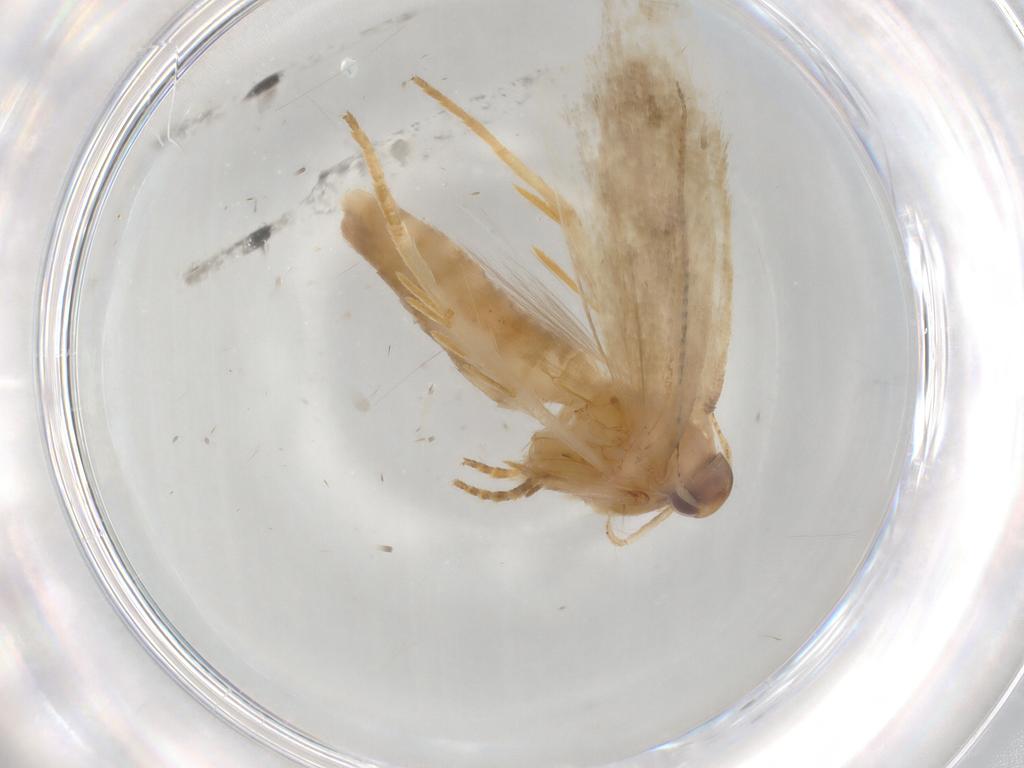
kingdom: Animalia
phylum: Arthropoda
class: Insecta
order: Lepidoptera
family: Gelechiidae
